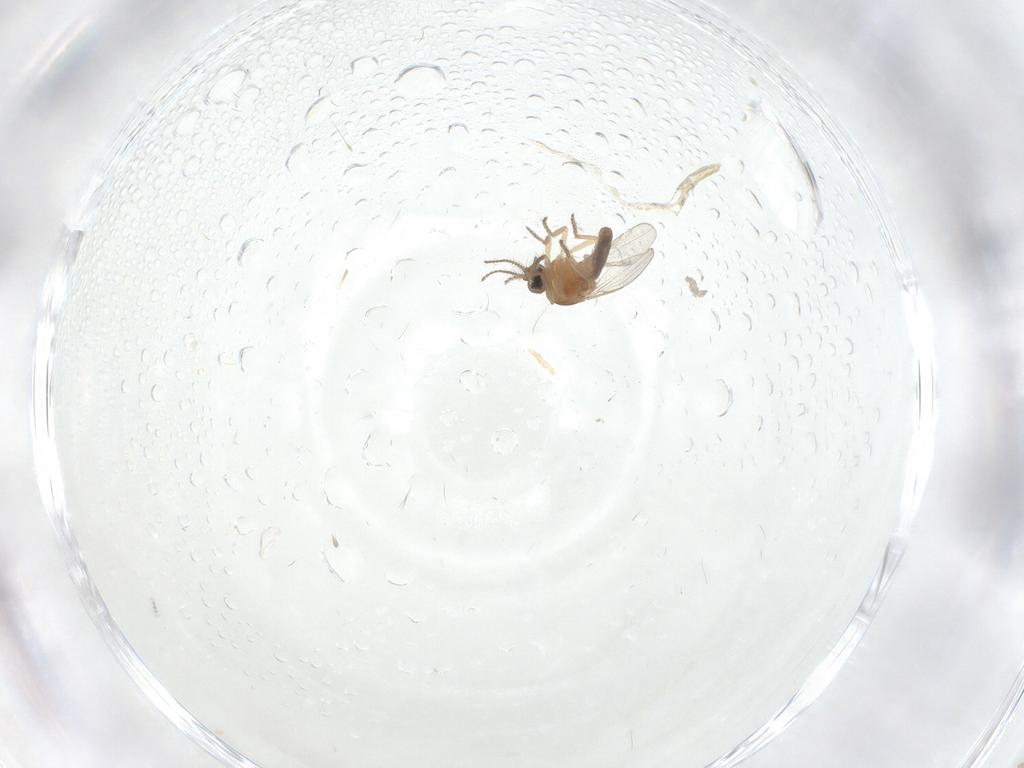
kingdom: Animalia
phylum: Arthropoda
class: Insecta
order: Diptera
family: Ceratopogonidae
